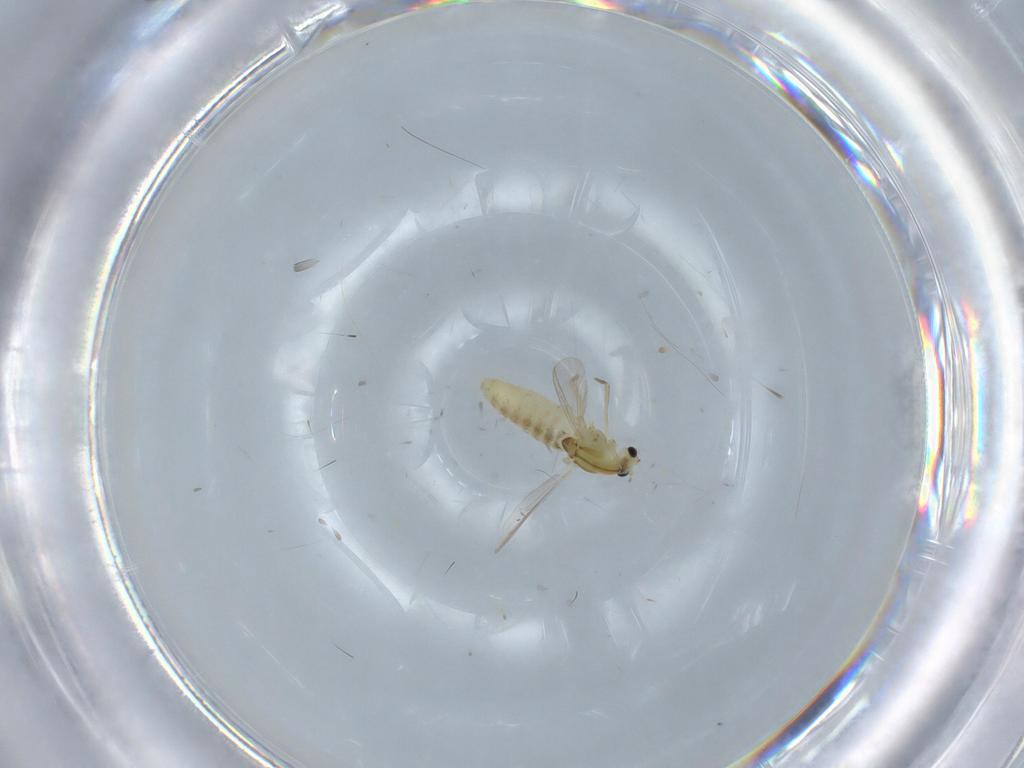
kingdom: Animalia
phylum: Arthropoda
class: Insecta
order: Diptera
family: Chironomidae
